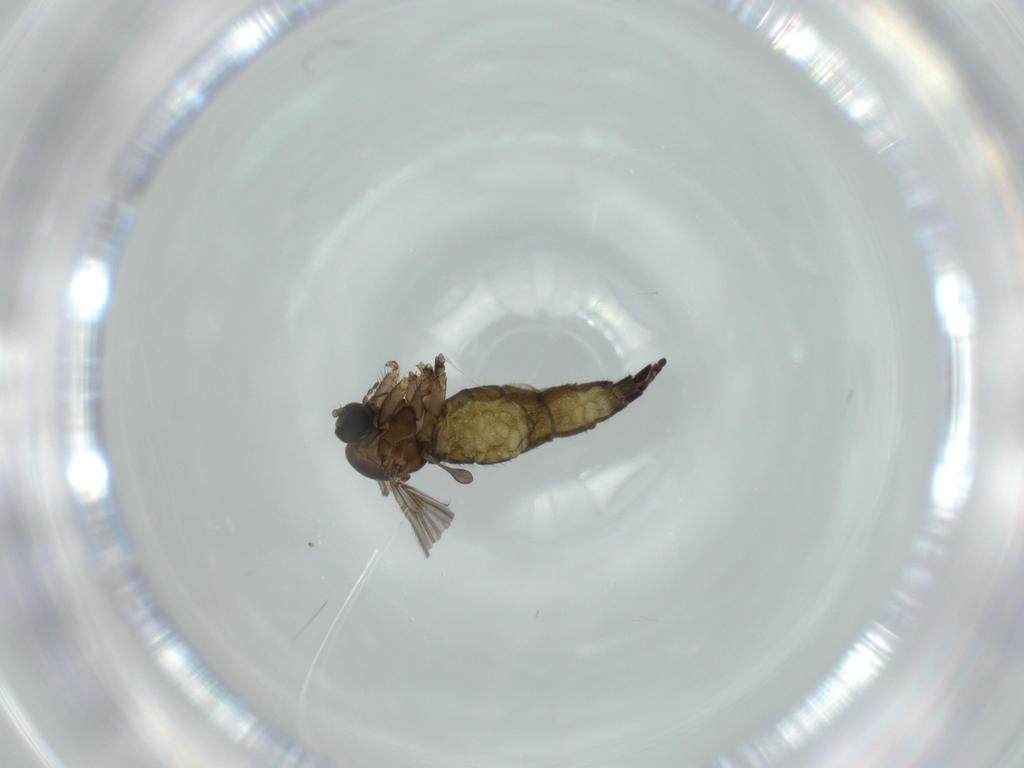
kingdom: Animalia
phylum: Arthropoda
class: Insecta
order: Diptera
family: Sciaridae
